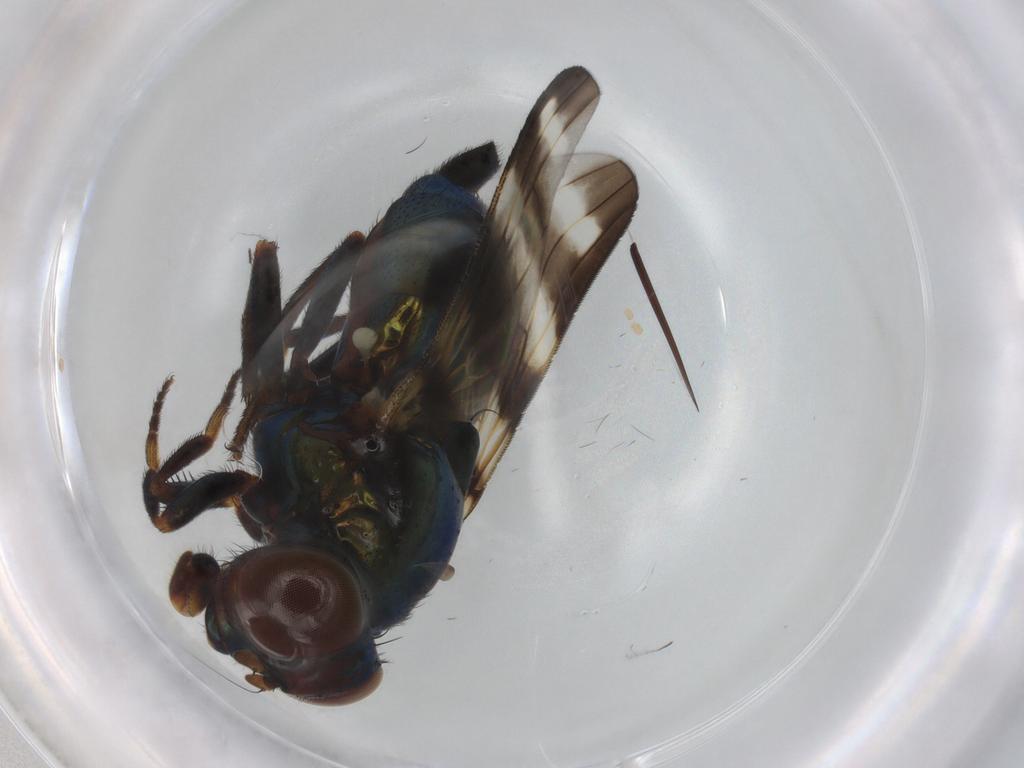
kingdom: Animalia
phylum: Arthropoda
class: Insecta
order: Diptera
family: Ulidiidae
